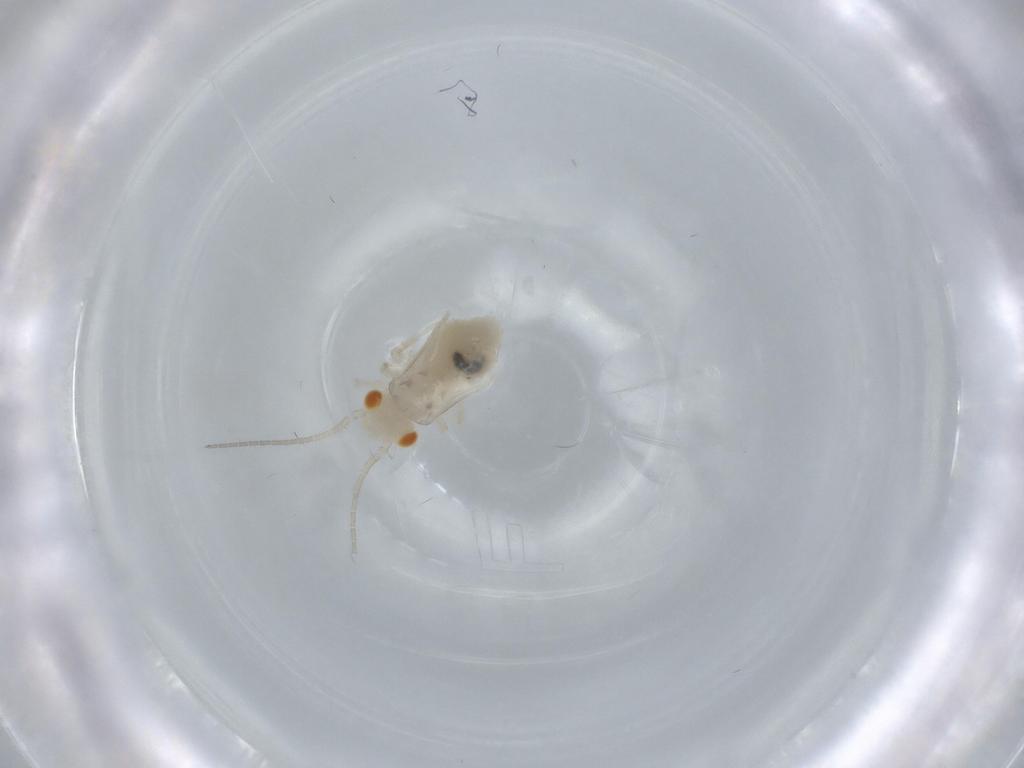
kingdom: Animalia
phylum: Arthropoda
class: Insecta
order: Psocodea
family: Caeciliusidae
